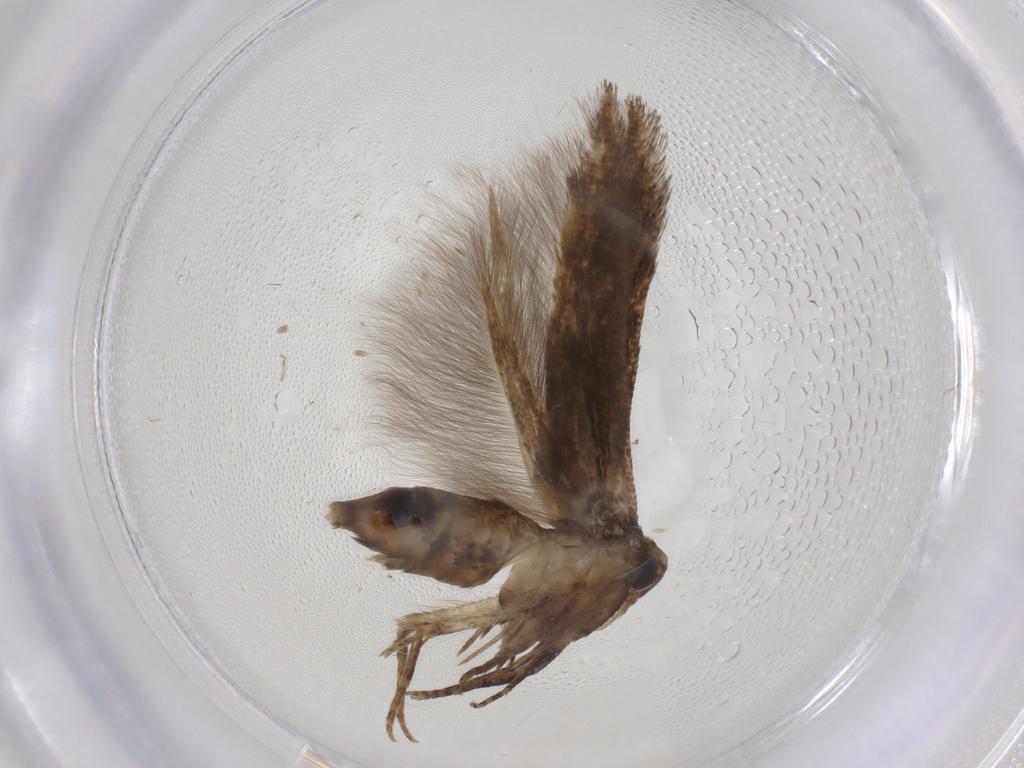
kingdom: Animalia
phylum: Arthropoda
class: Insecta
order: Lepidoptera
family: Cosmopterigidae
